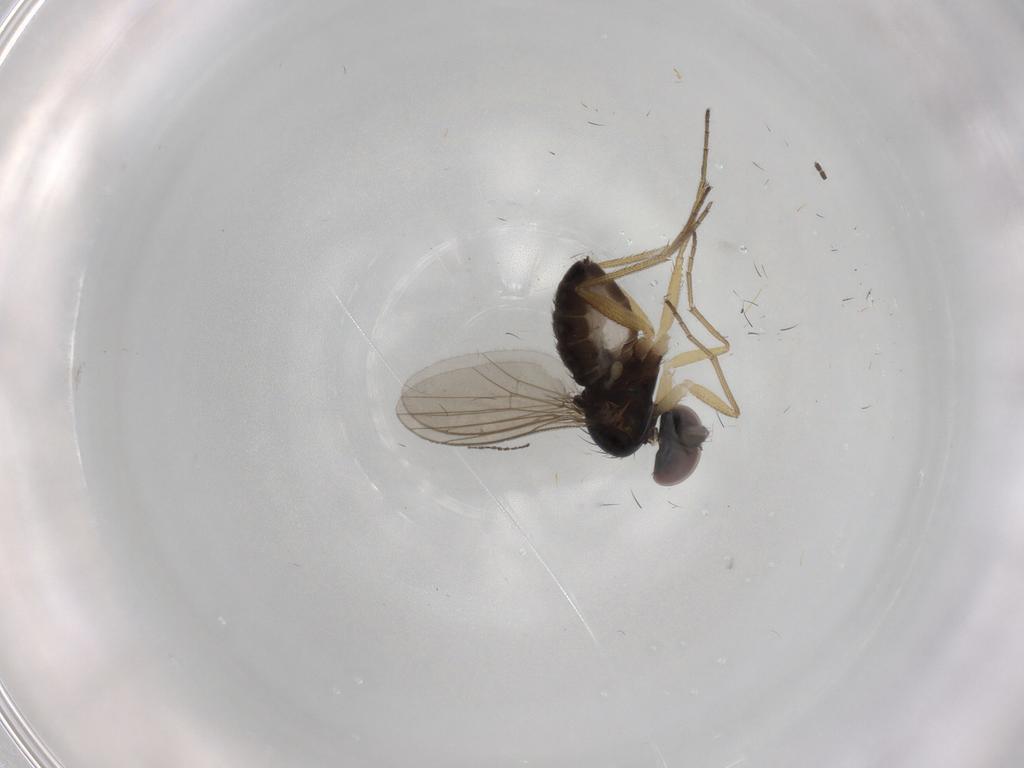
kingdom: Animalia
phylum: Arthropoda
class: Insecta
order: Diptera
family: Dolichopodidae
